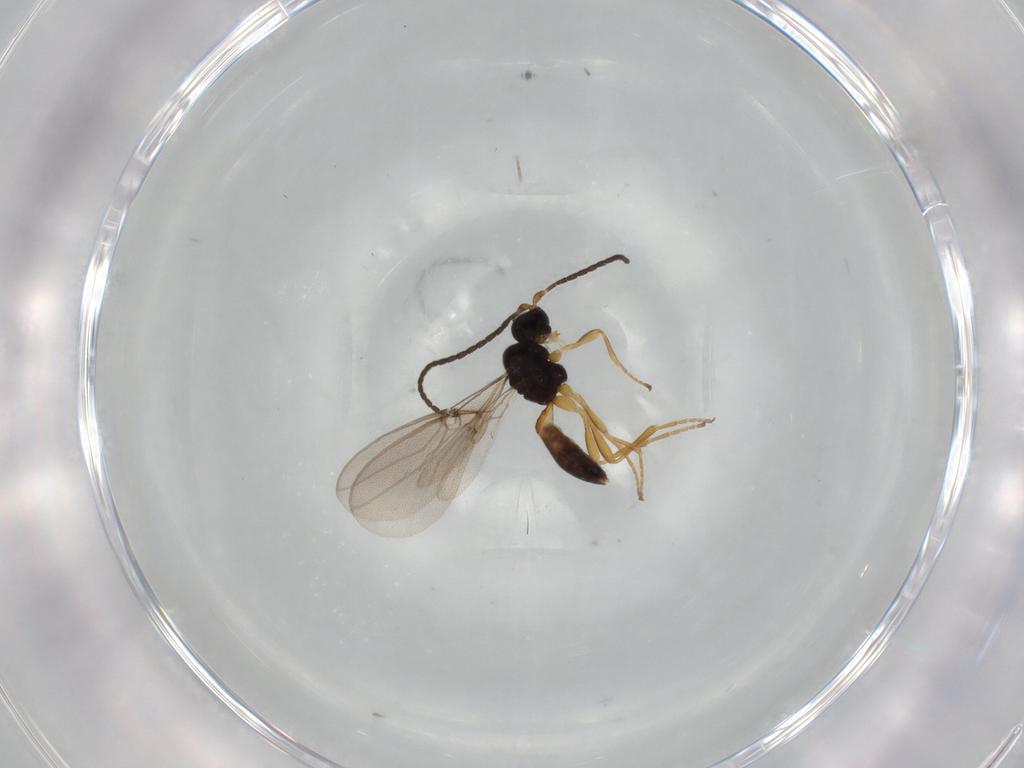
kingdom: Animalia
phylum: Arthropoda
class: Insecta
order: Hymenoptera
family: Braconidae
